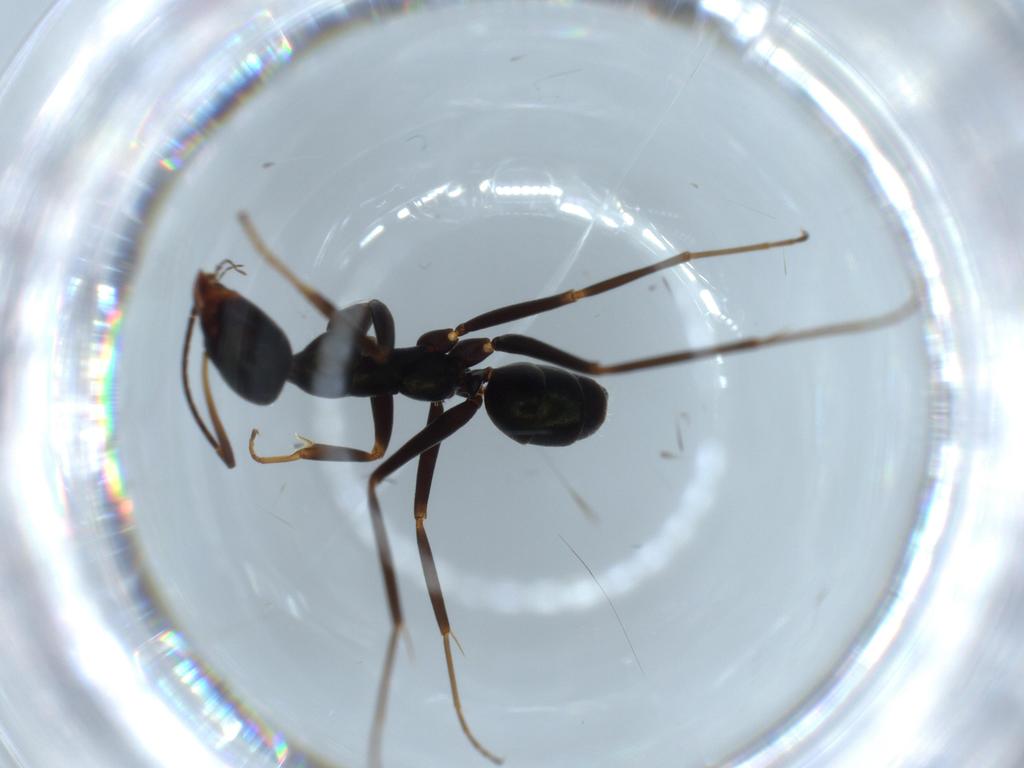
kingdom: Animalia
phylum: Arthropoda
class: Insecta
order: Hymenoptera
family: Formicidae
